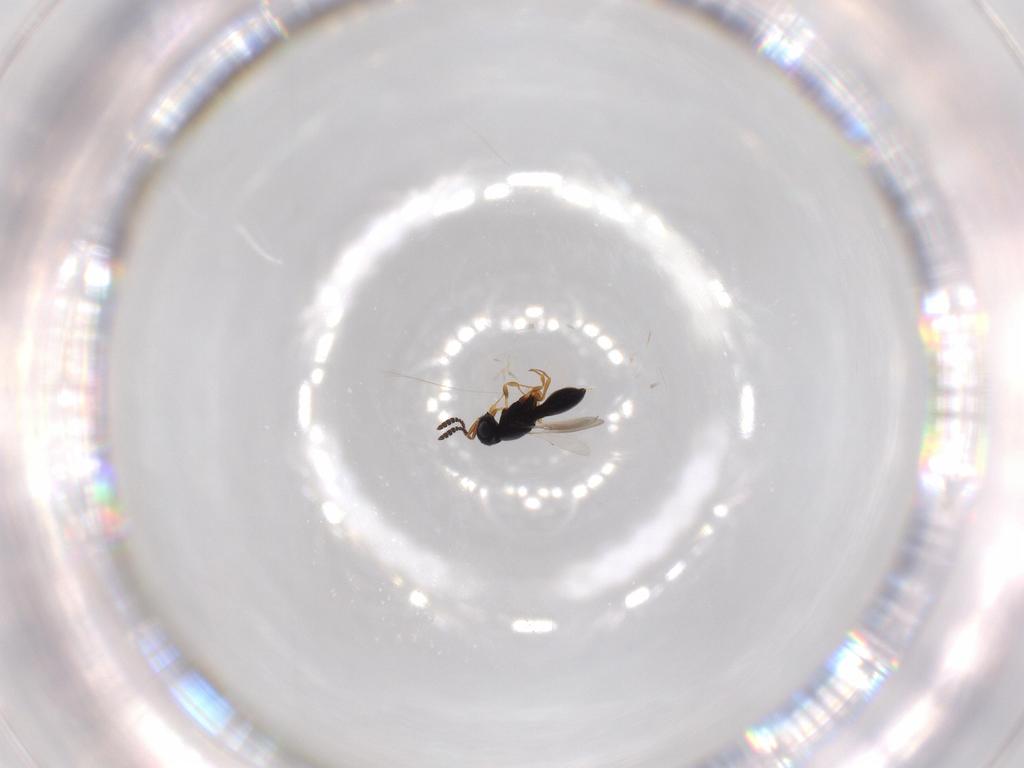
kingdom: Animalia
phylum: Arthropoda
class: Insecta
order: Hymenoptera
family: Scelionidae
